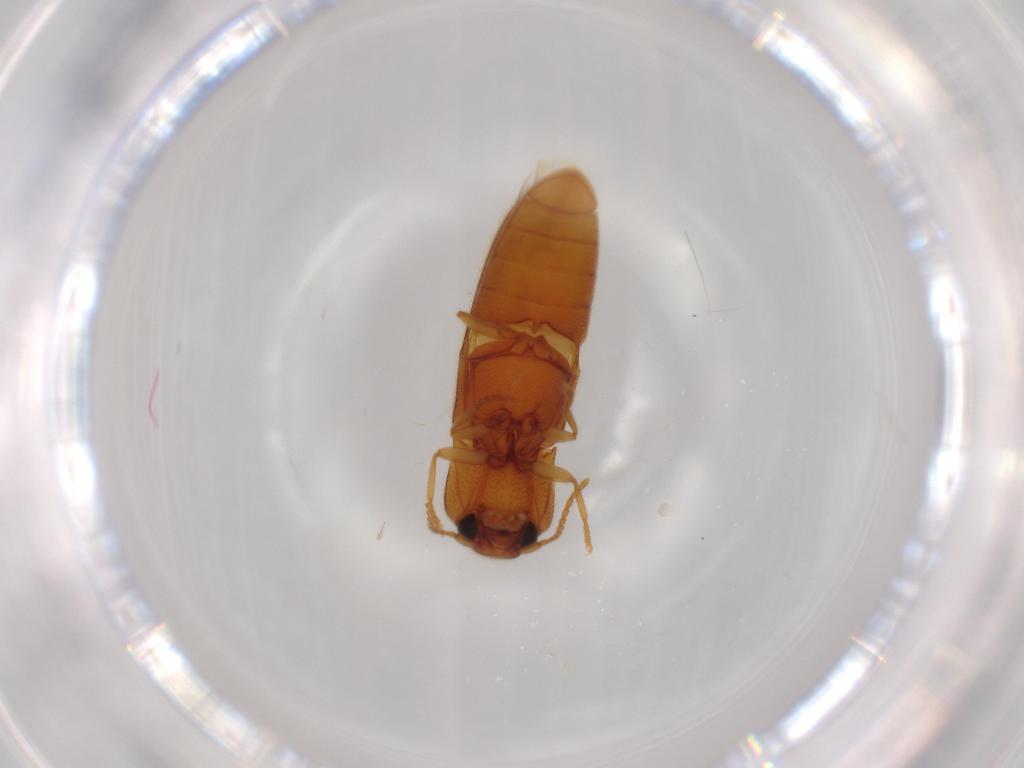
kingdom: Animalia
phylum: Arthropoda
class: Insecta
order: Coleoptera
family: Elateridae
